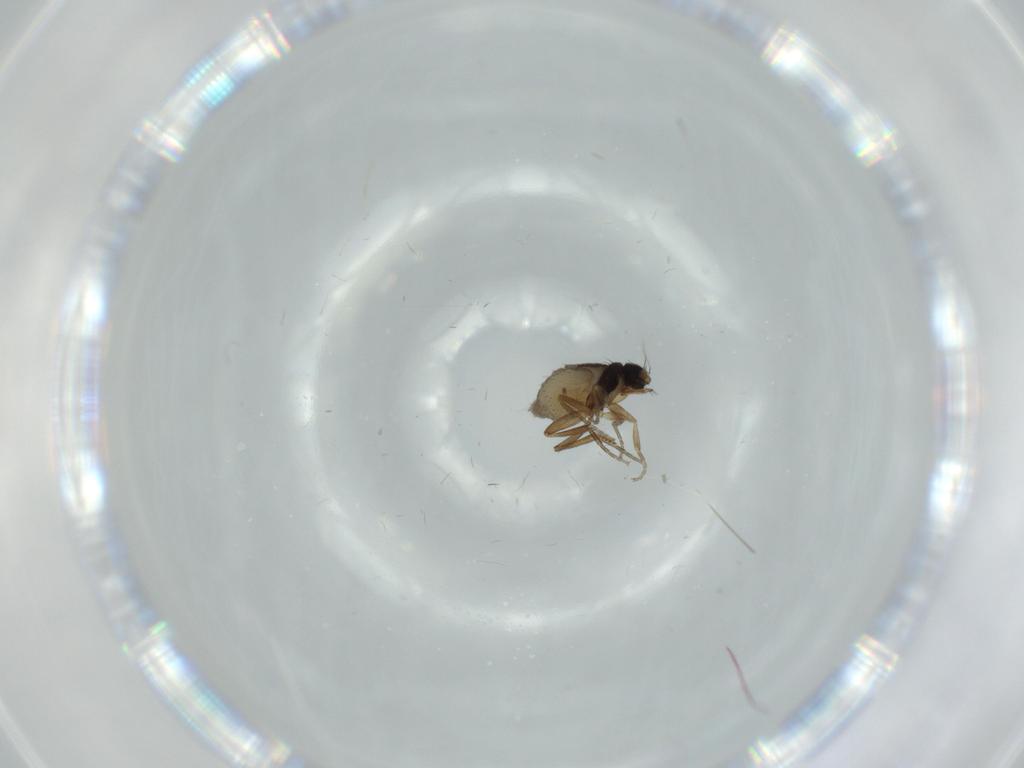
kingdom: Animalia
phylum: Arthropoda
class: Insecta
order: Diptera
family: Phoridae
